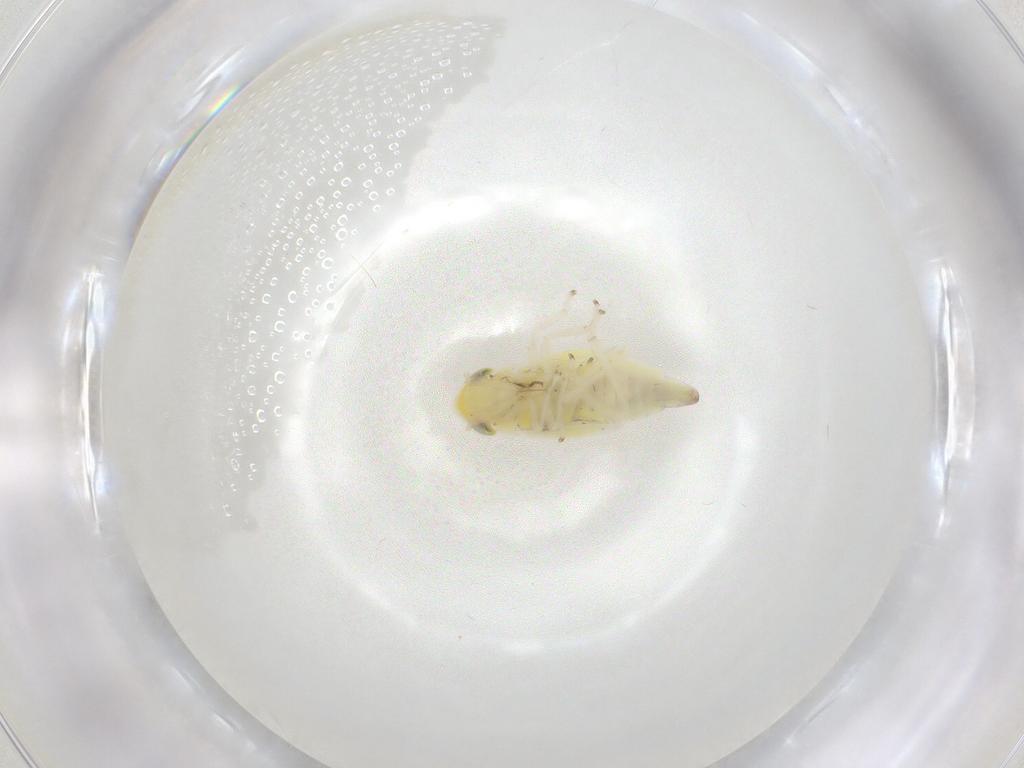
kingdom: Animalia
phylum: Arthropoda
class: Insecta
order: Hemiptera
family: Cicadellidae
